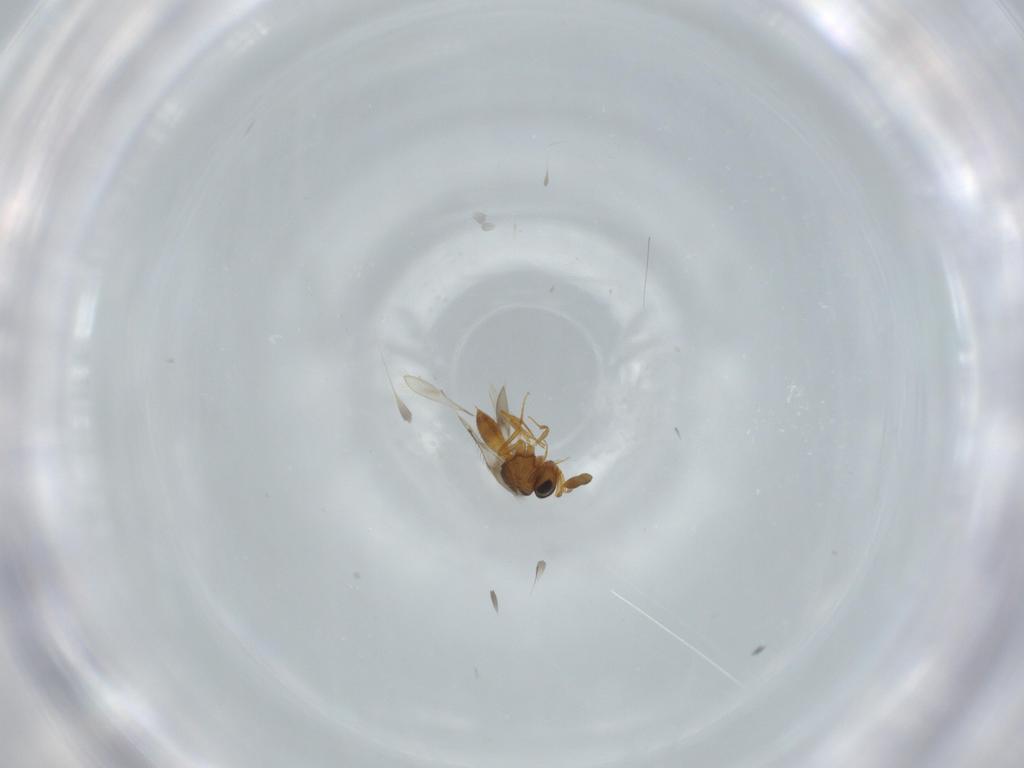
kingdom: Animalia
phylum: Arthropoda
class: Insecta
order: Hymenoptera
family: Scelionidae
